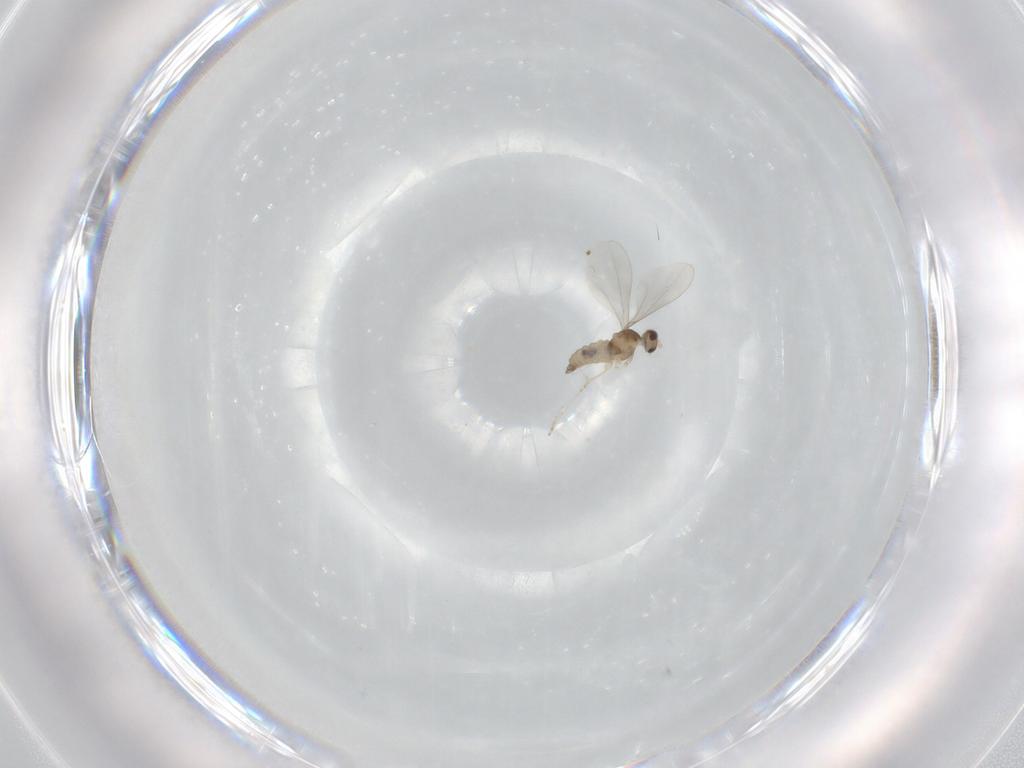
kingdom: Animalia
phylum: Arthropoda
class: Insecta
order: Diptera
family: Cecidomyiidae
